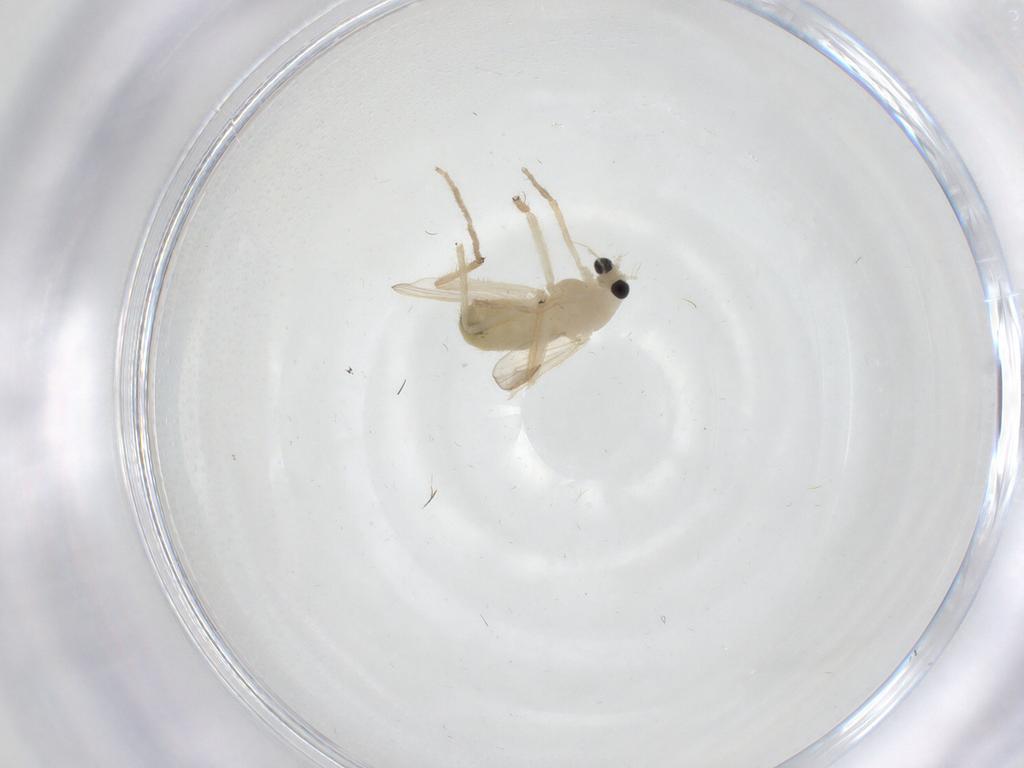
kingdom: Animalia
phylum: Arthropoda
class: Insecta
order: Diptera
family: Chironomidae
